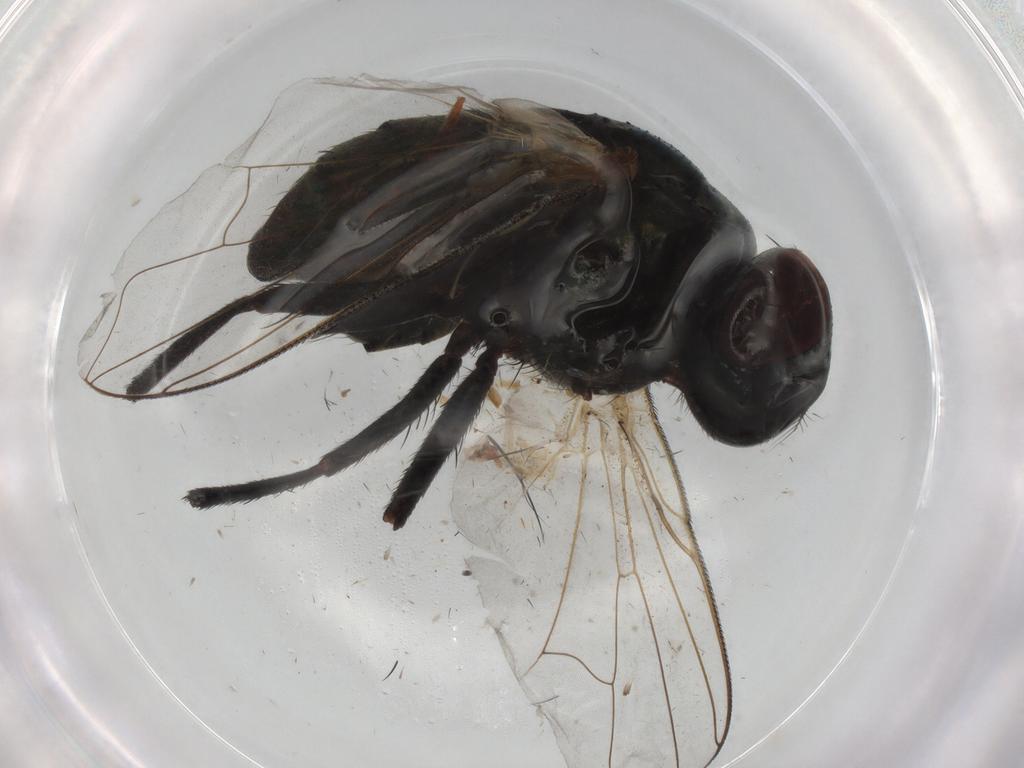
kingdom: Animalia
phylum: Arthropoda
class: Insecta
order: Diptera
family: Muscidae
